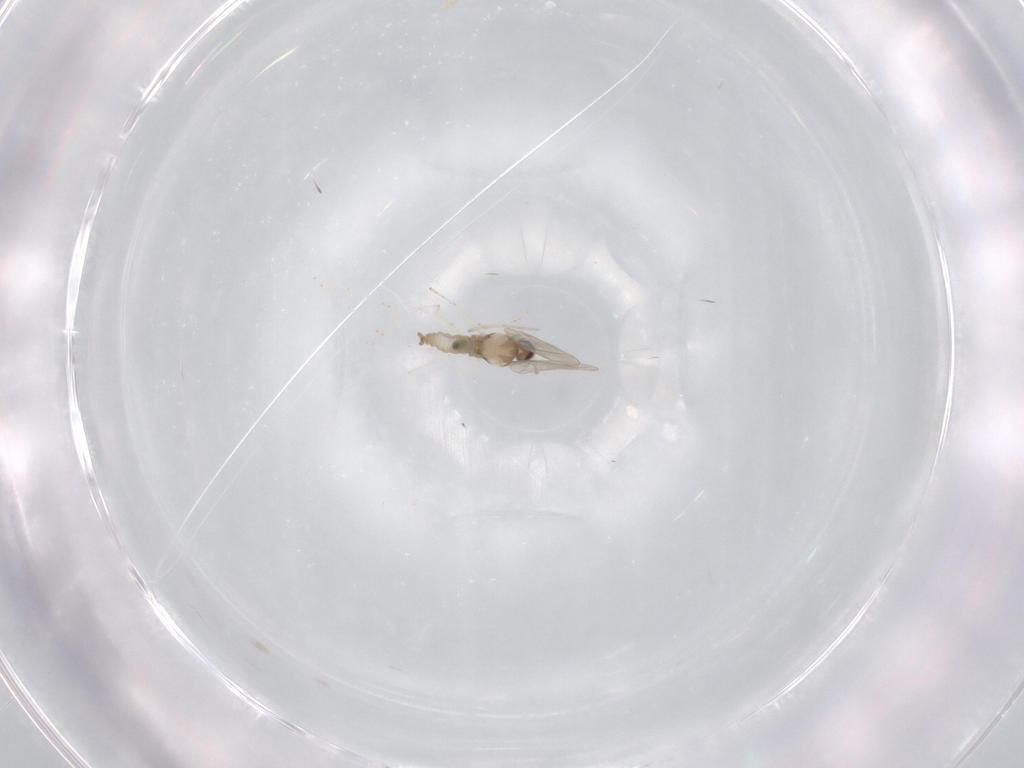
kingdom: Animalia
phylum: Arthropoda
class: Insecta
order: Diptera
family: Cecidomyiidae
